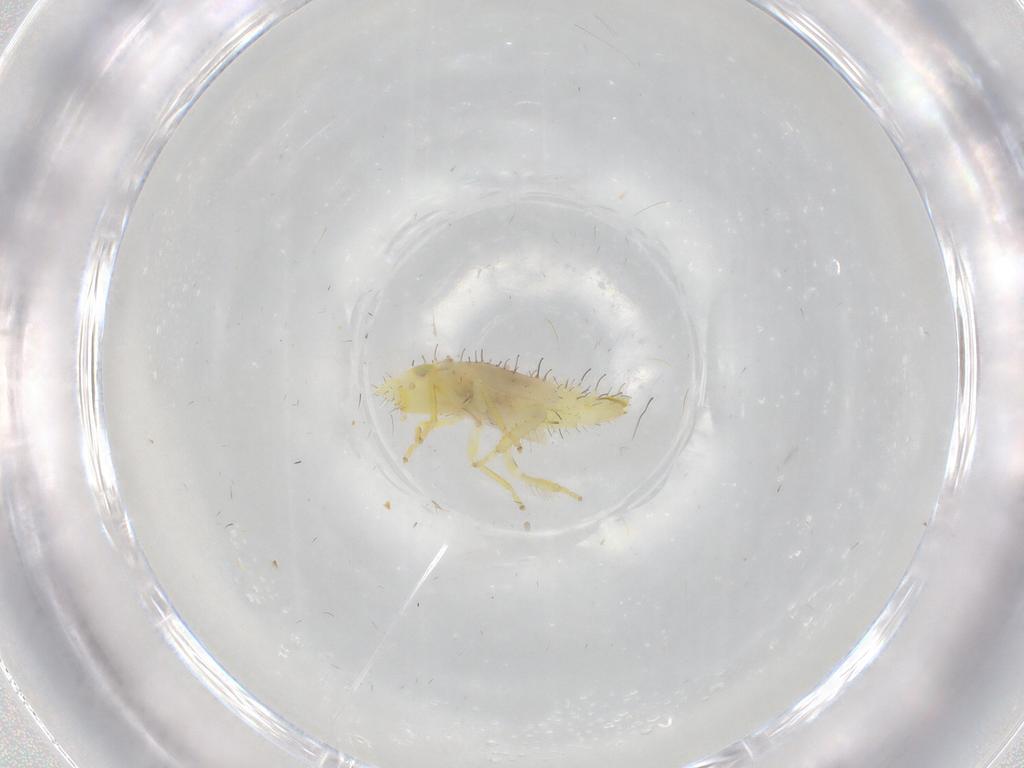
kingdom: Animalia
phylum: Arthropoda
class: Insecta
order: Hemiptera
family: Cicadellidae
